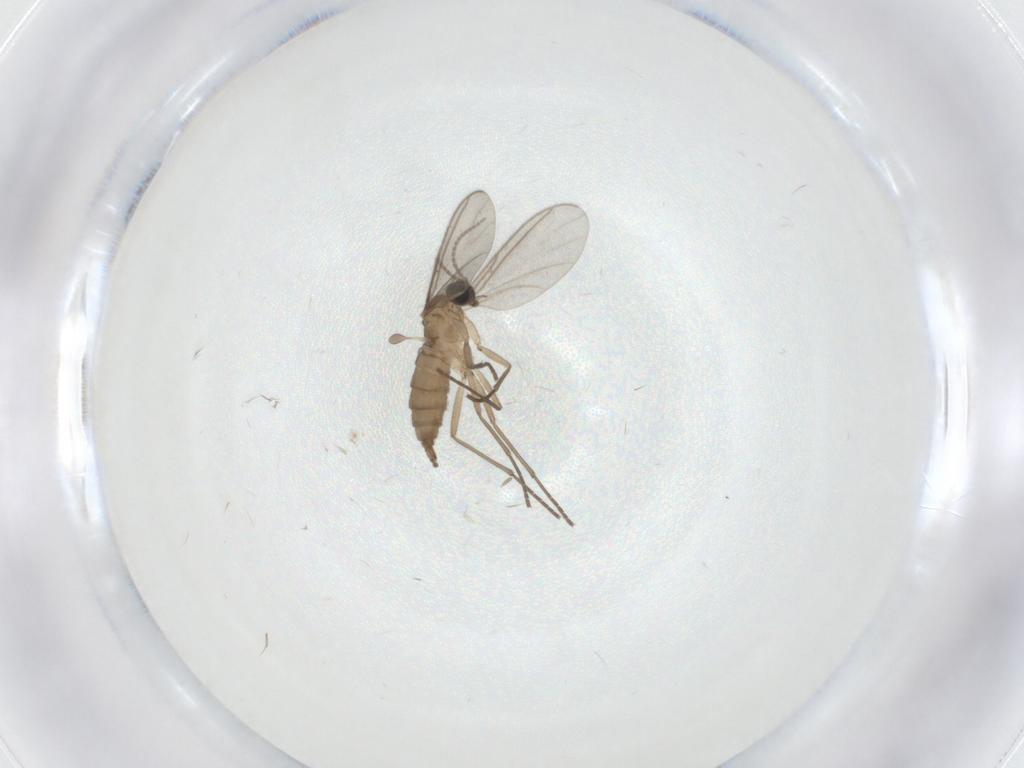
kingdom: Animalia
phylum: Arthropoda
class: Insecta
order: Diptera
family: Sciaridae
